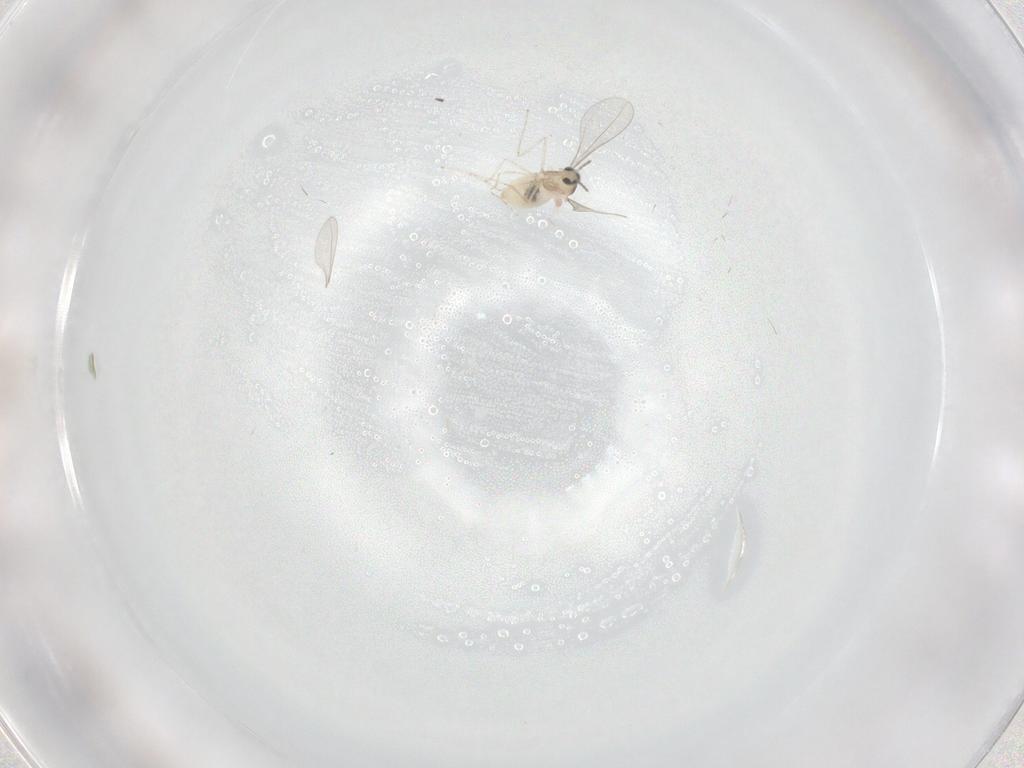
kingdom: Animalia
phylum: Arthropoda
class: Insecta
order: Diptera
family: Cecidomyiidae
